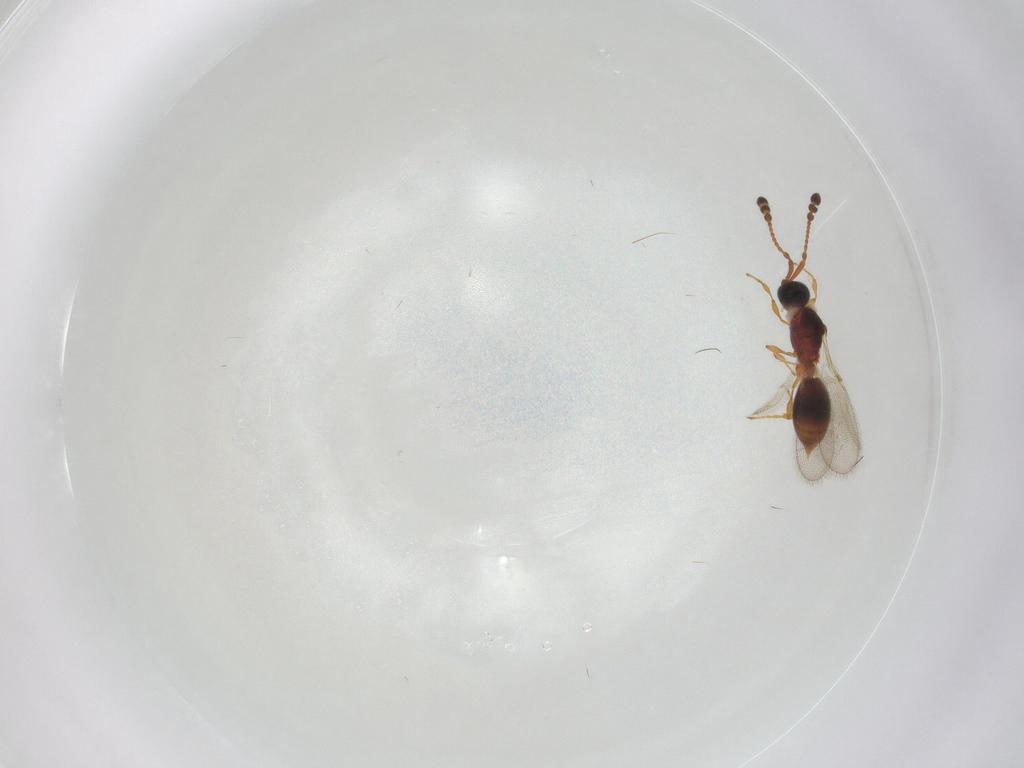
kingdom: Animalia
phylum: Arthropoda
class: Insecta
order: Hymenoptera
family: Diapriidae
